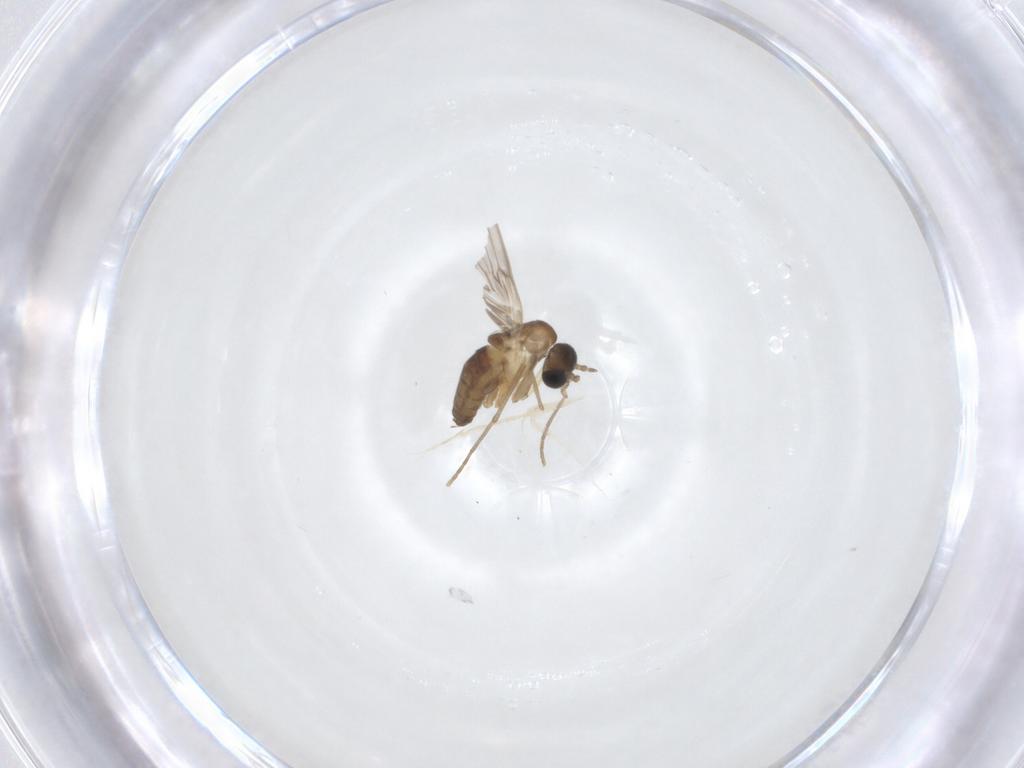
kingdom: Animalia
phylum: Arthropoda
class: Insecta
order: Diptera
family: Psychodidae
